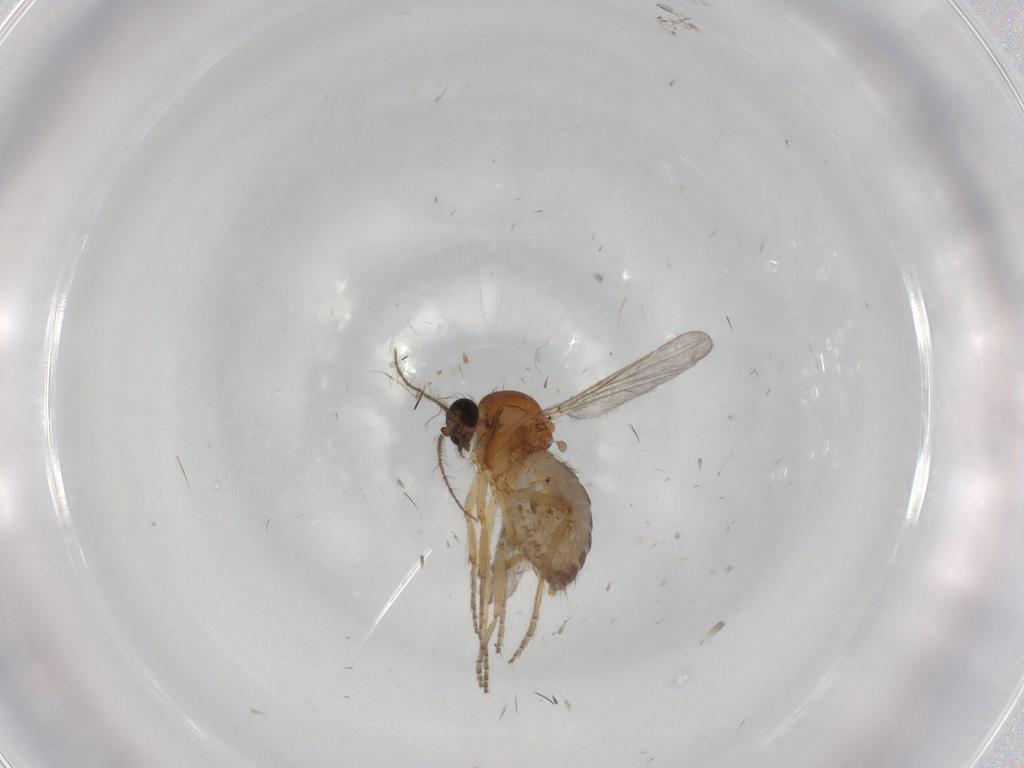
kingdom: Animalia
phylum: Arthropoda
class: Insecta
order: Diptera
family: Ceratopogonidae
